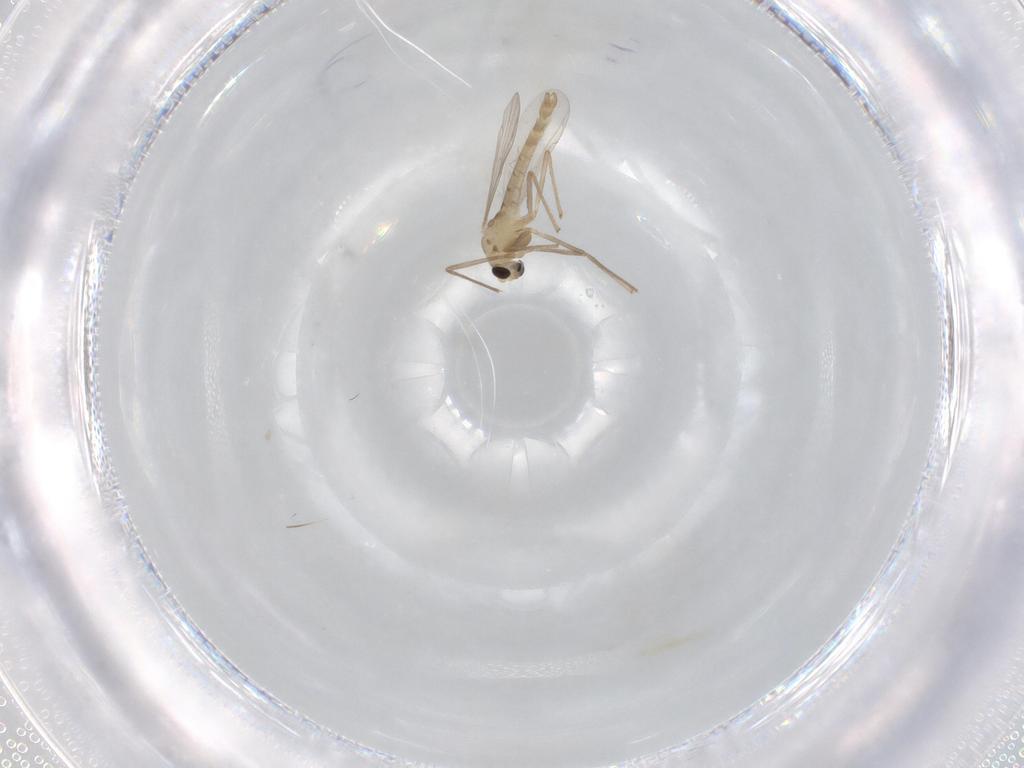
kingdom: Animalia
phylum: Arthropoda
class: Insecta
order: Diptera
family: Chironomidae
